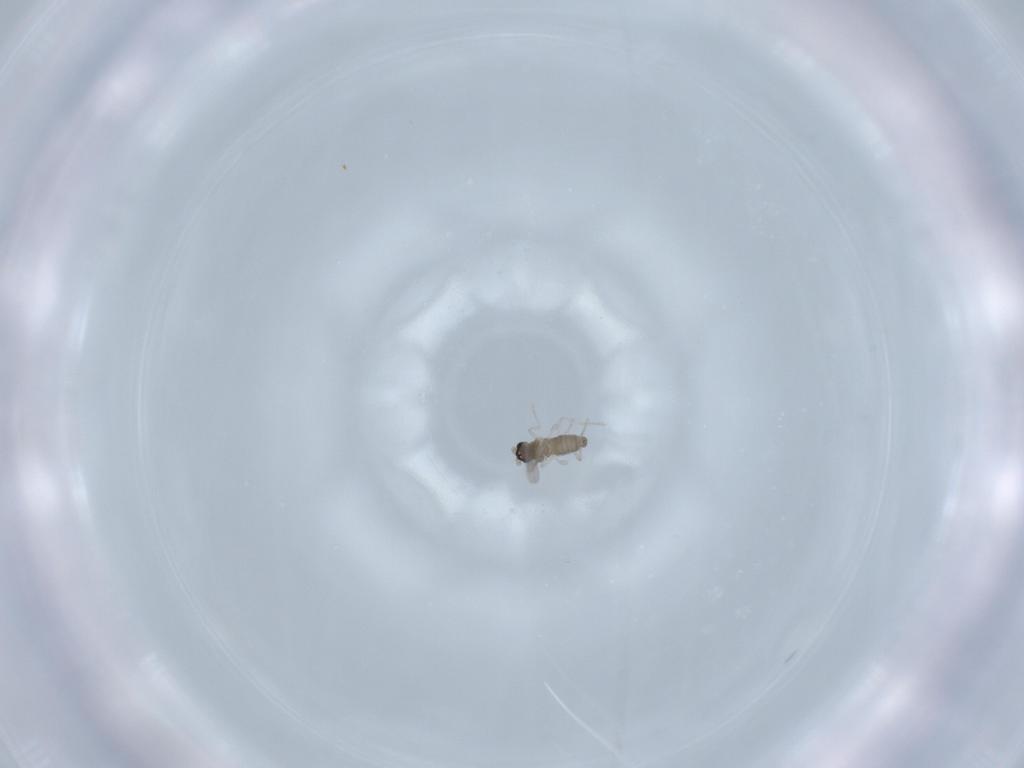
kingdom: Animalia
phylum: Arthropoda
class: Insecta
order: Diptera
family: Cecidomyiidae
